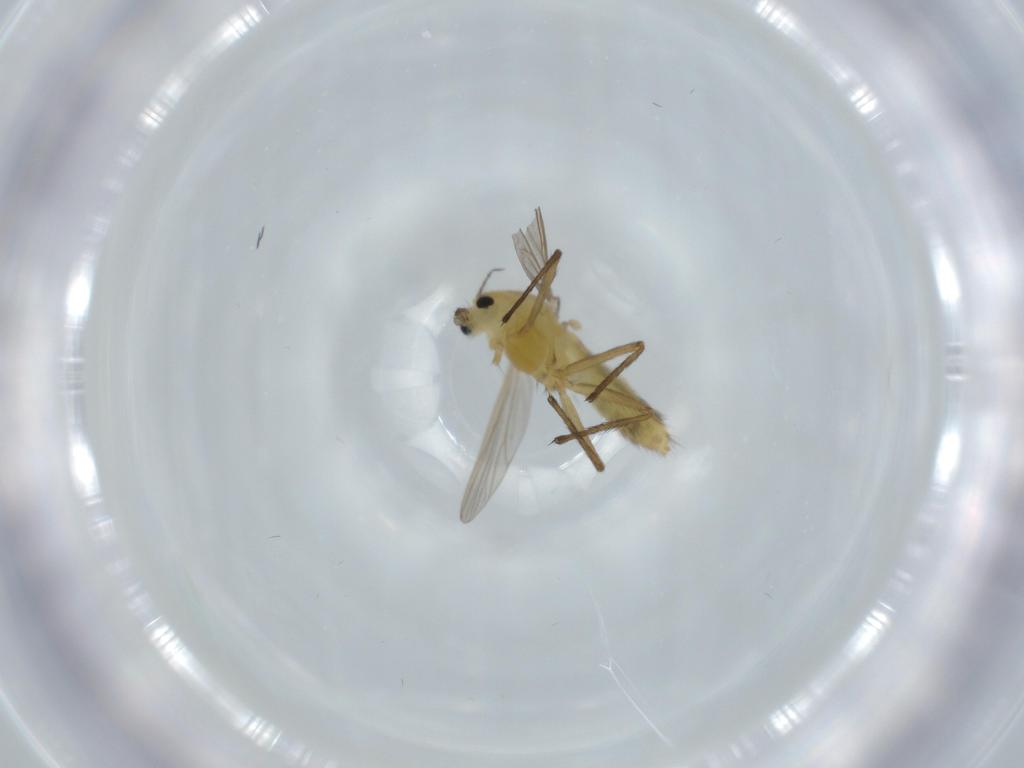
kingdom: Animalia
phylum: Arthropoda
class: Insecta
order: Diptera
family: Chironomidae
